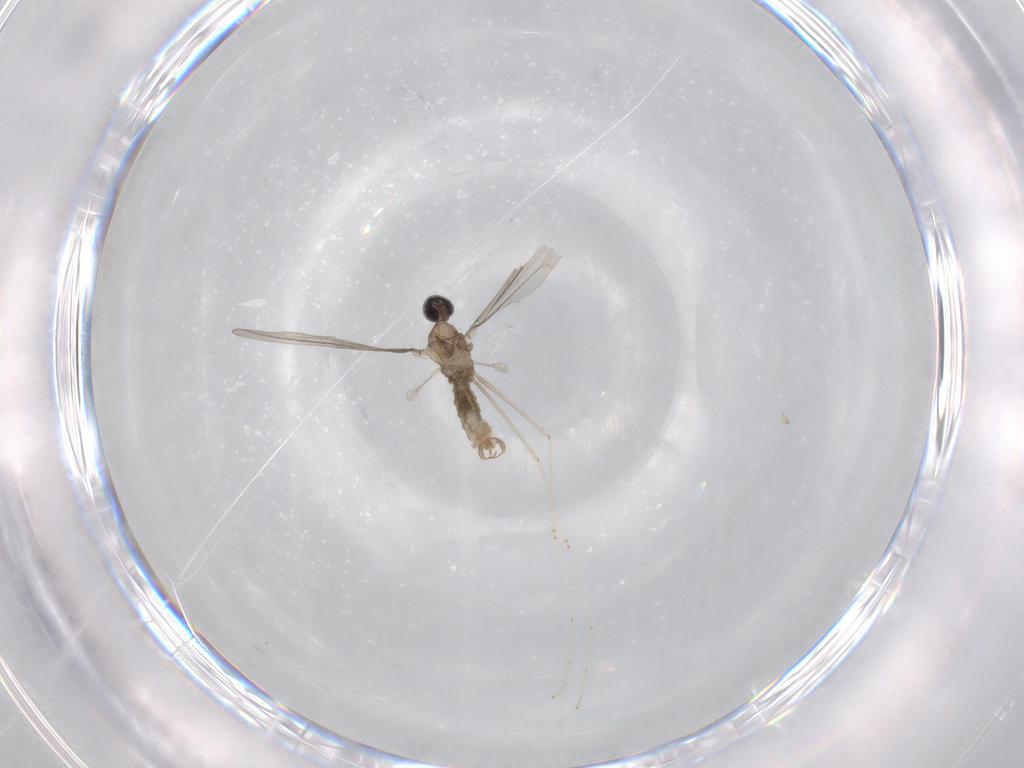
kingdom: Animalia
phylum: Arthropoda
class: Insecta
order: Diptera
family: Cecidomyiidae
